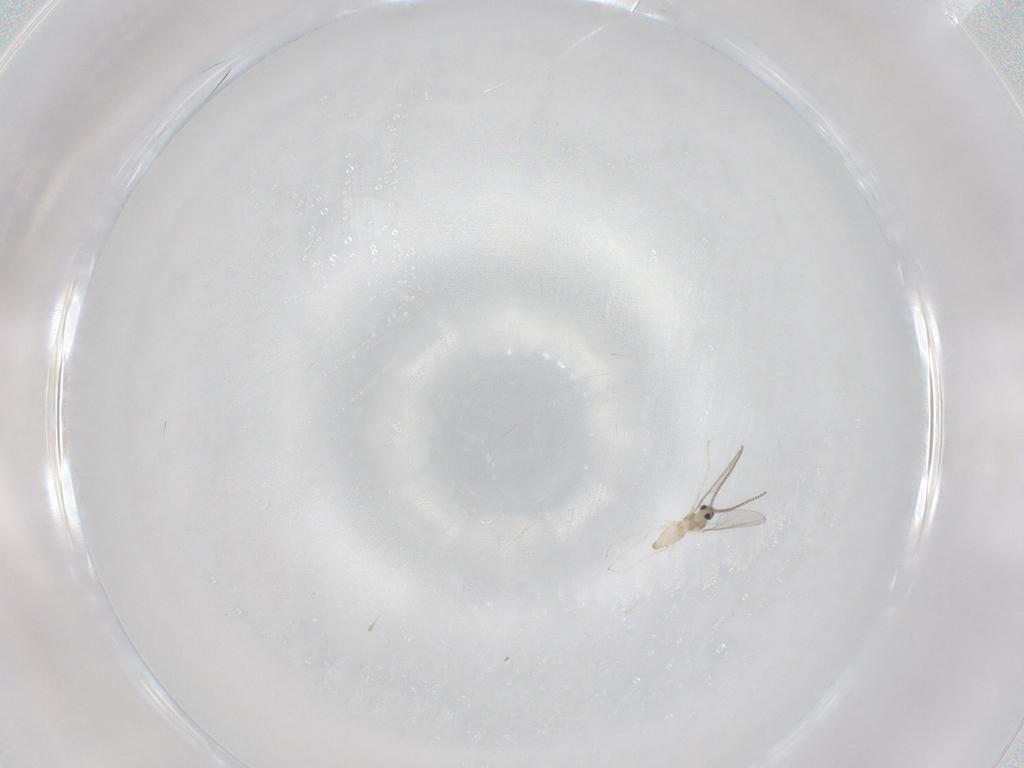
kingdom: Animalia
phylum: Arthropoda
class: Insecta
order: Diptera
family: Cecidomyiidae
